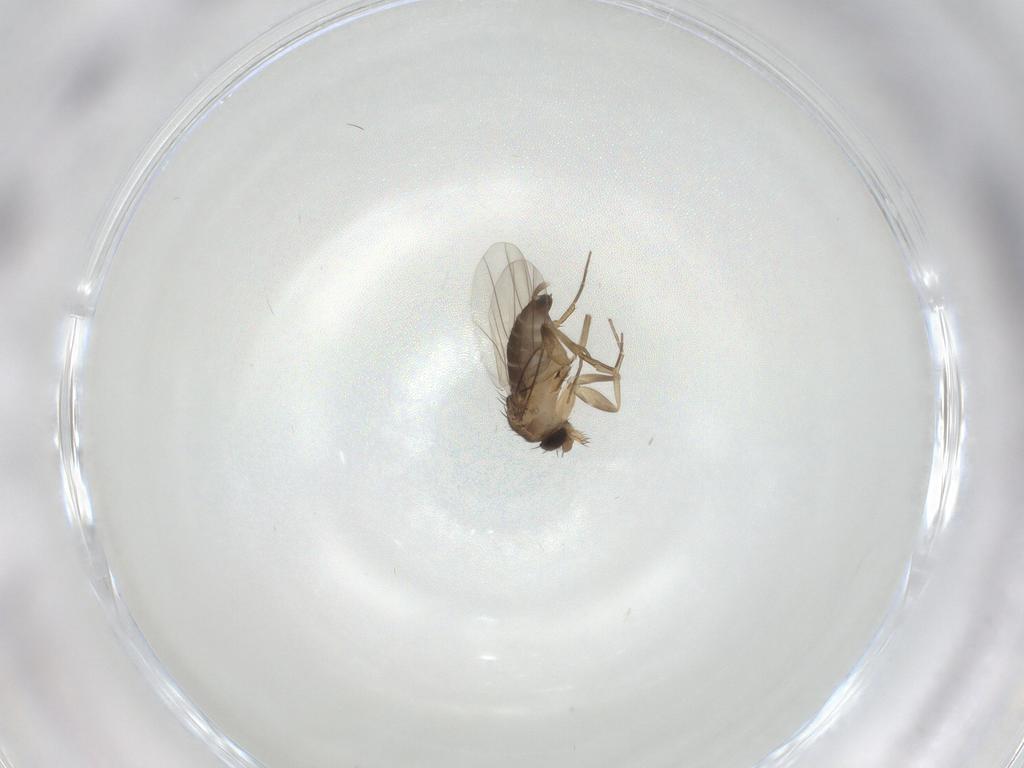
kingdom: Animalia
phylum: Arthropoda
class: Insecta
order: Diptera
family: Phoridae
